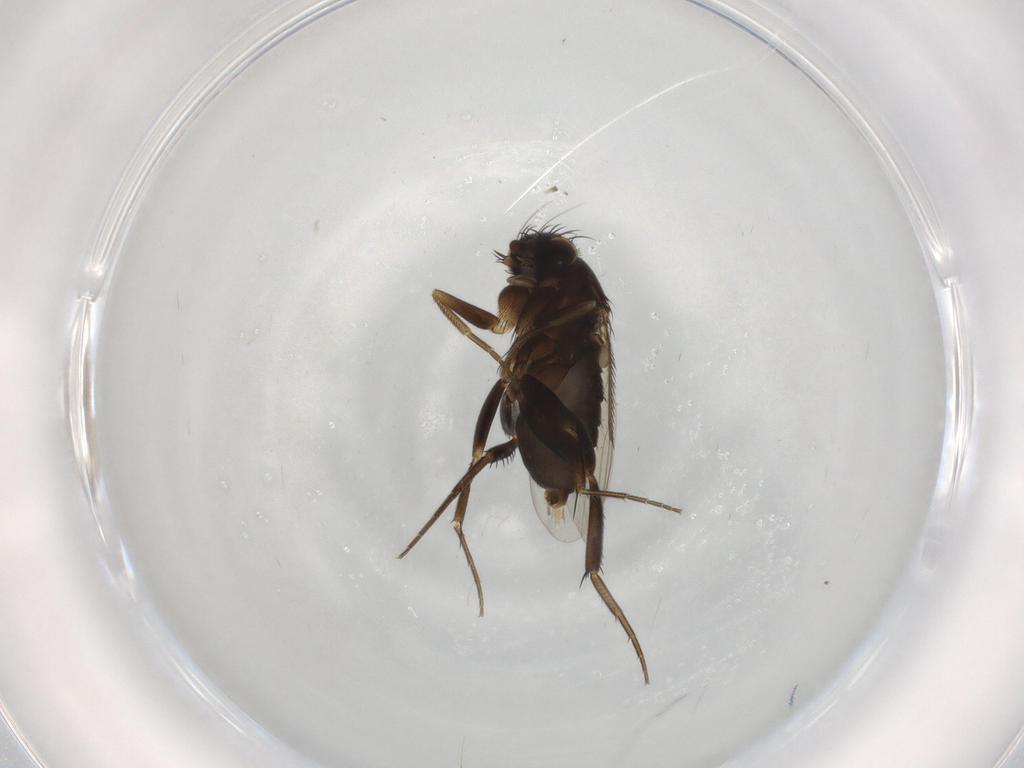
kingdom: Animalia
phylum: Arthropoda
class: Insecta
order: Diptera
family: Phoridae
